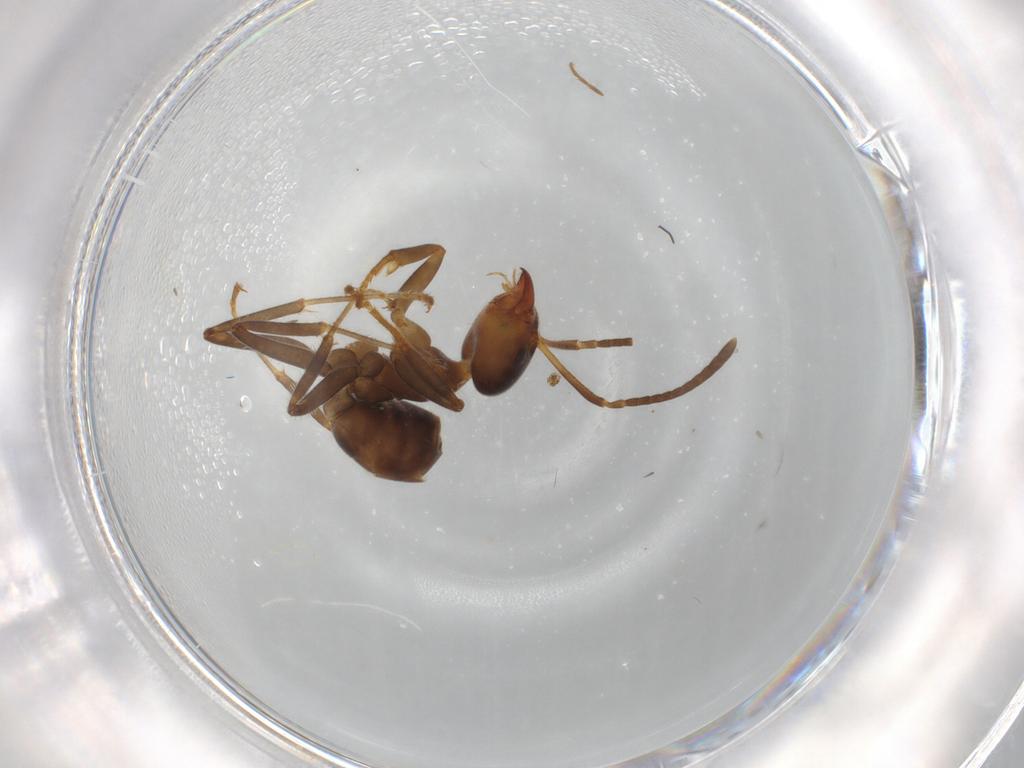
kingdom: Animalia
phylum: Arthropoda
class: Insecta
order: Hymenoptera
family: Formicidae
